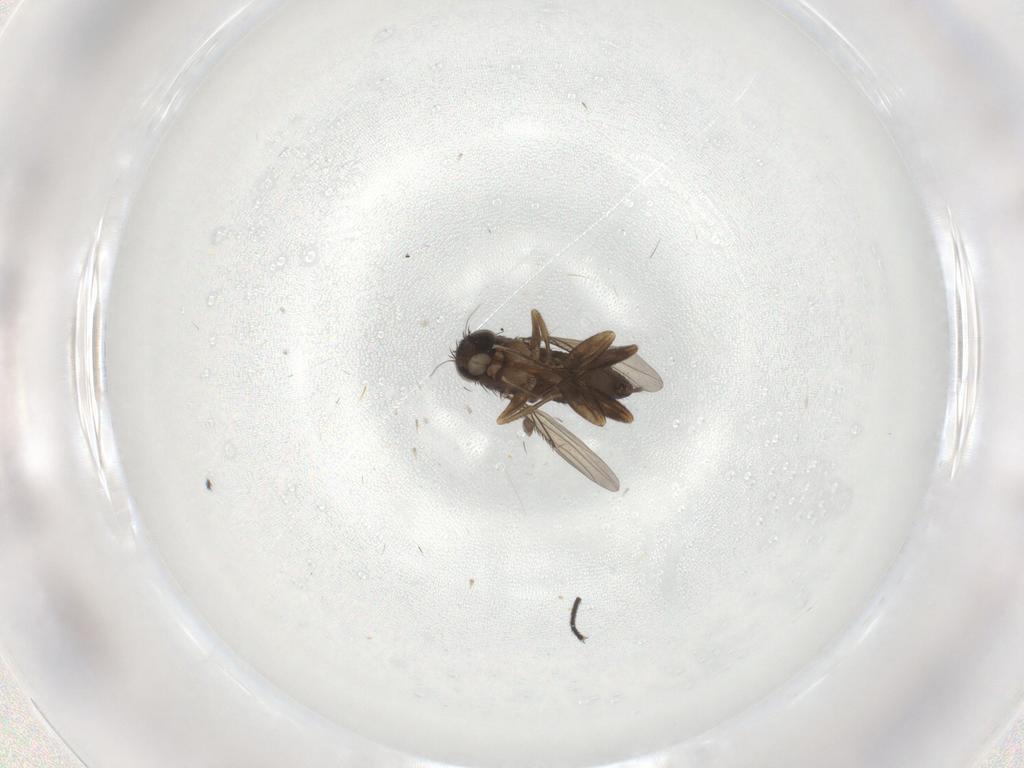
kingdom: Animalia
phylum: Arthropoda
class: Insecta
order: Diptera
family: Phoridae
